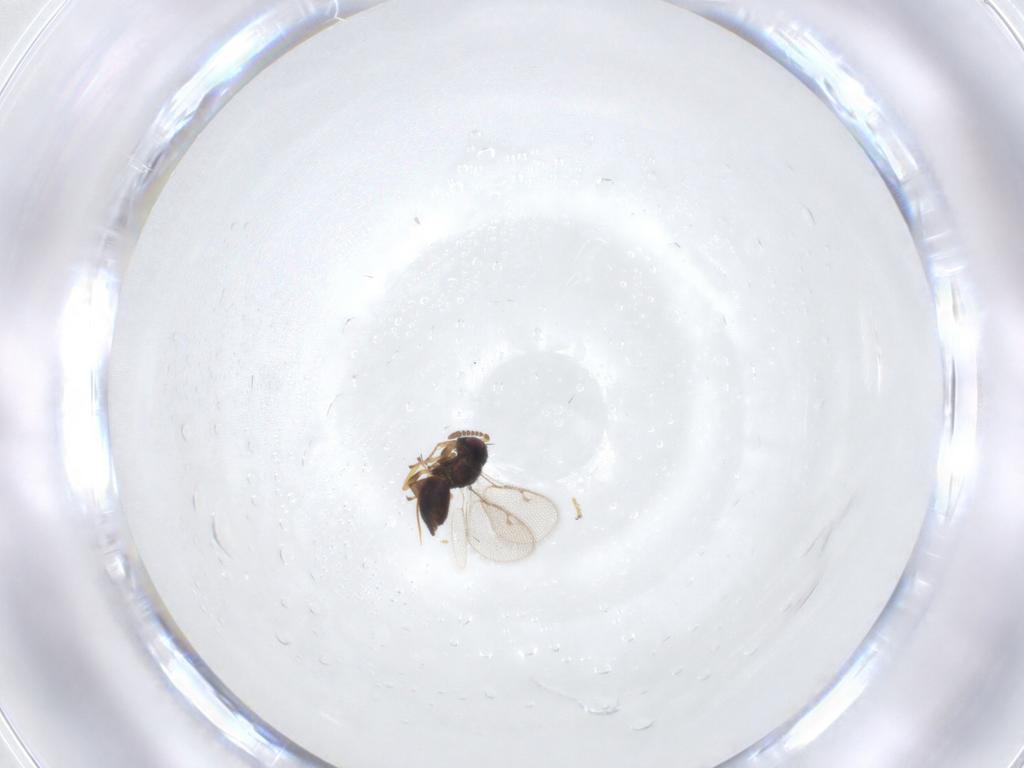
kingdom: Animalia
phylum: Arthropoda
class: Insecta
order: Hymenoptera
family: Pirenidae
